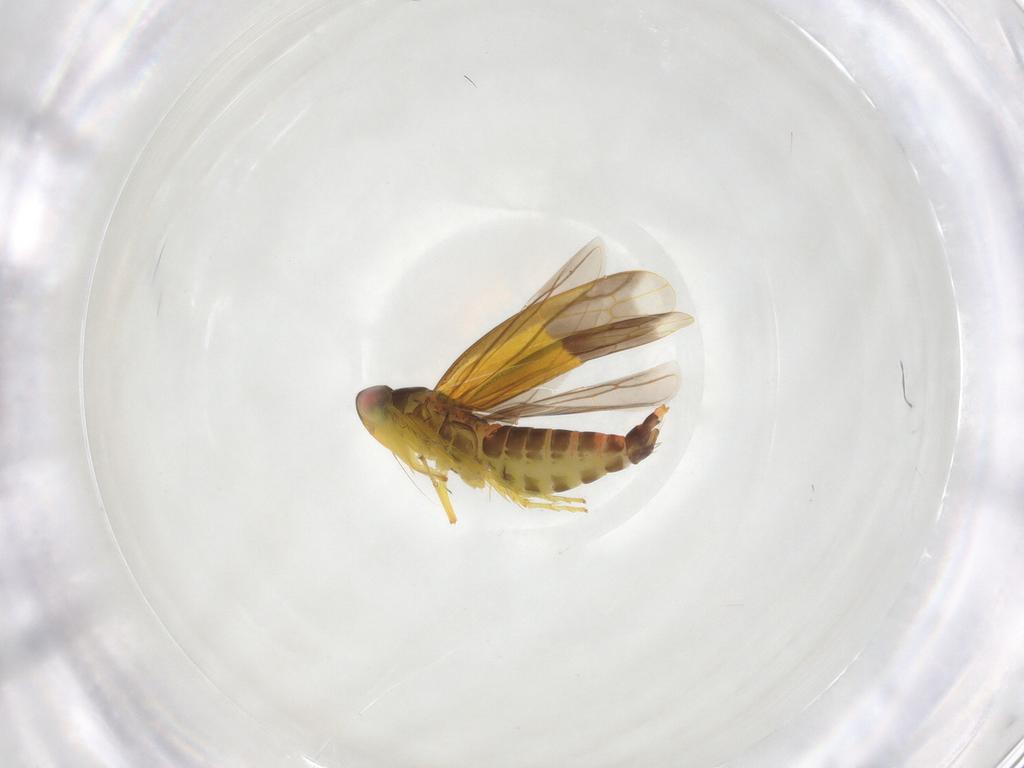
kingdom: Animalia
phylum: Arthropoda
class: Insecta
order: Hemiptera
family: Cicadellidae
